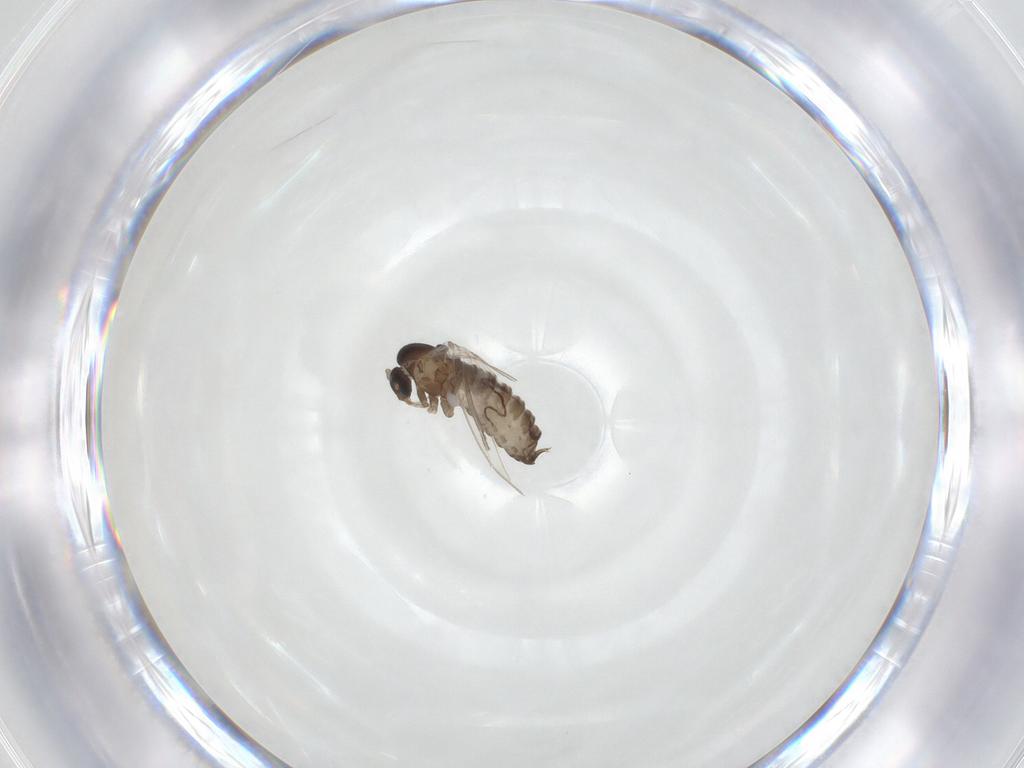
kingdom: Animalia
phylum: Arthropoda
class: Insecta
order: Diptera
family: Psychodidae
